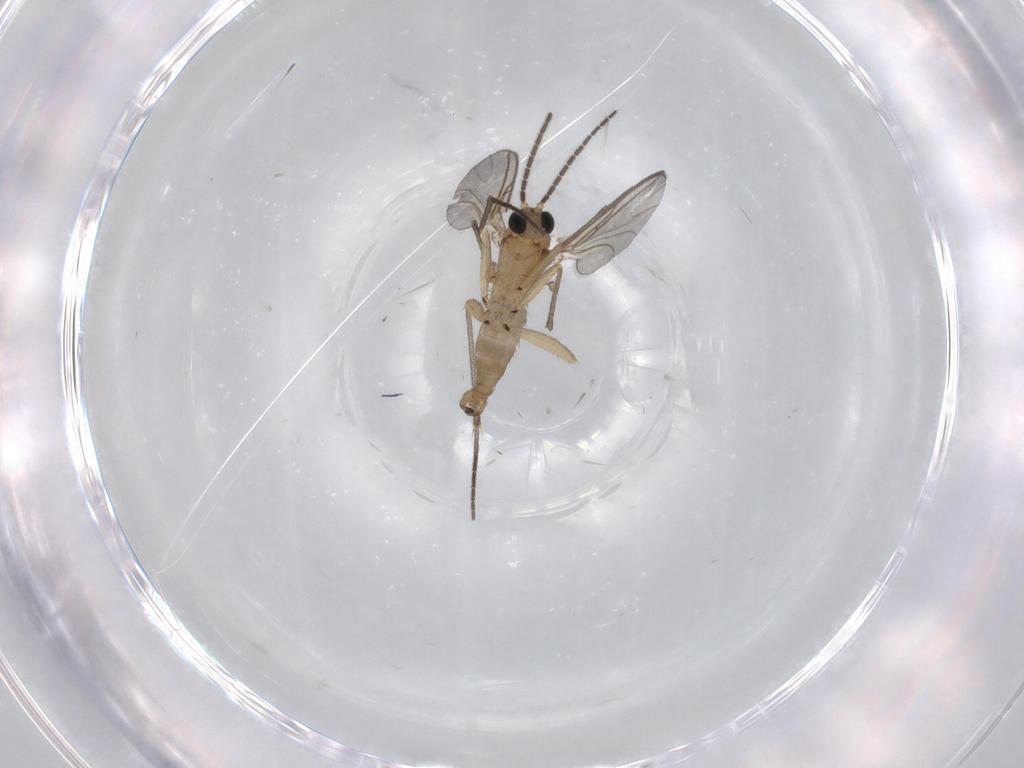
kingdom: Animalia
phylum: Arthropoda
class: Insecta
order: Diptera
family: Sciaridae
